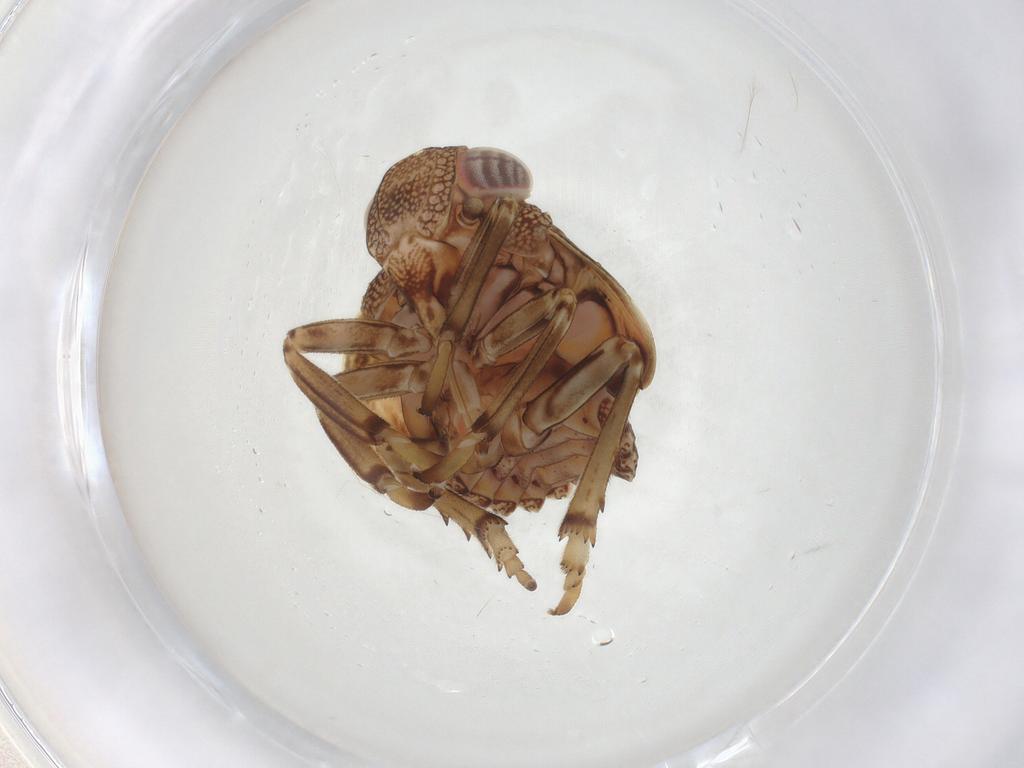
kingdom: Animalia
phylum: Arthropoda
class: Insecta
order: Hemiptera
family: Issidae
